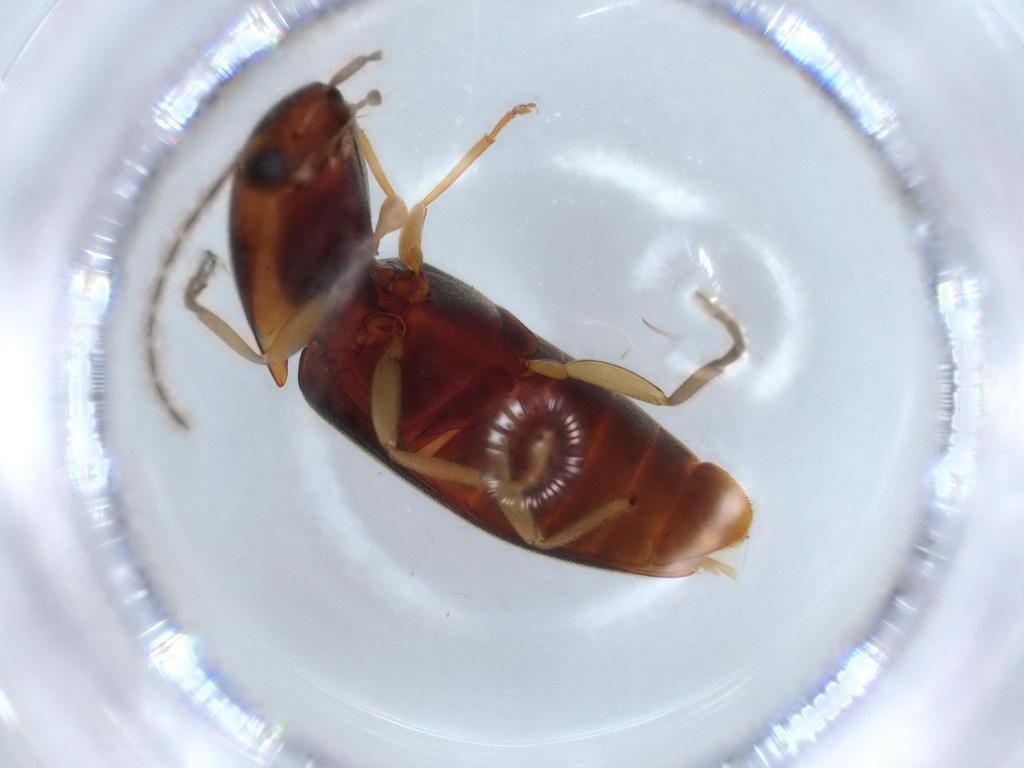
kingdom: Animalia
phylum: Arthropoda
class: Insecta
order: Coleoptera
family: Elateridae
